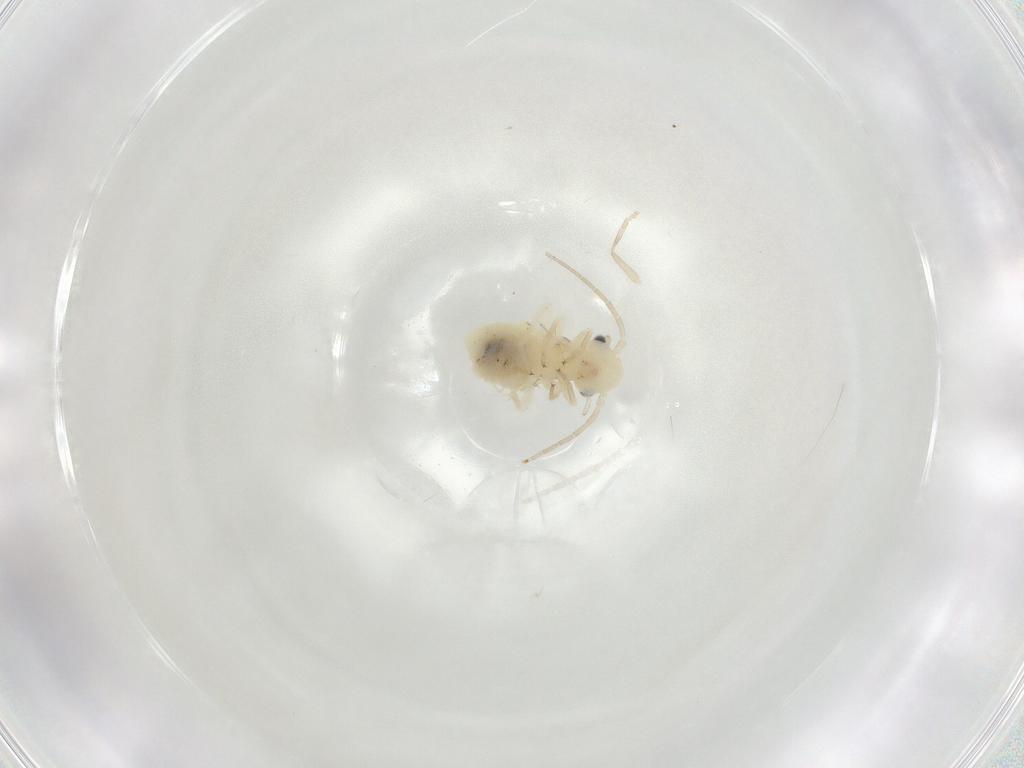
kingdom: Animalia
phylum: Arthropoda
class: Insecta
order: Psocodea
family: Stenopsocidae
